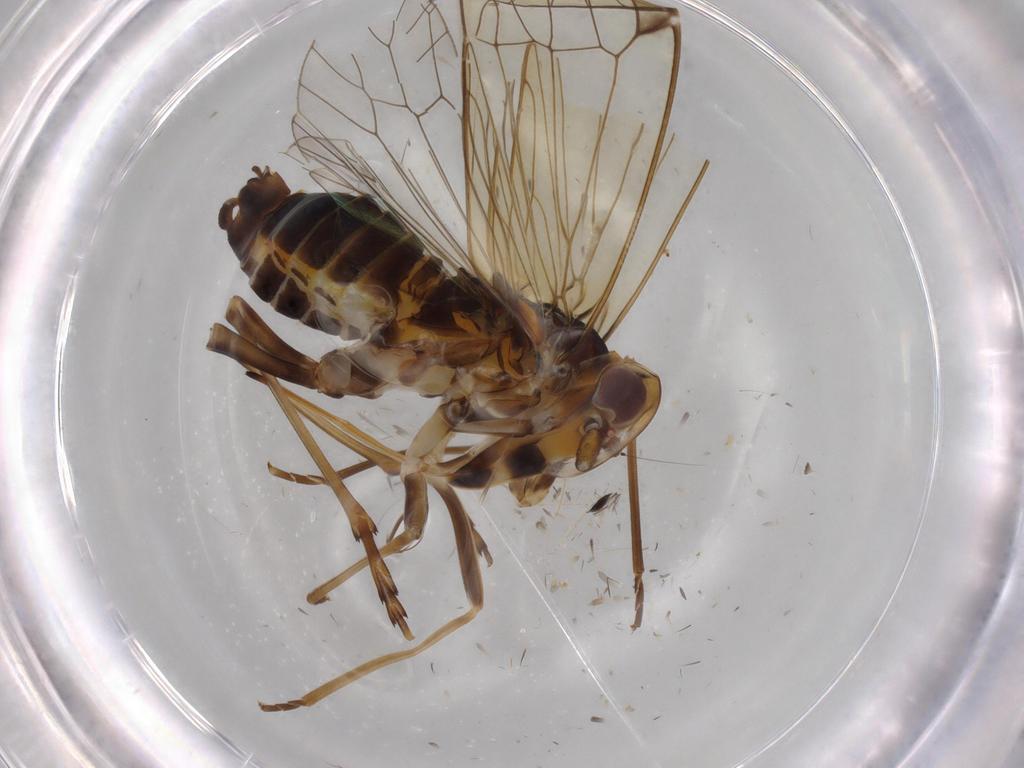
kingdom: Animalia
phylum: Arthropoda
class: Insecta
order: Hemiptera
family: Kinnaridae
